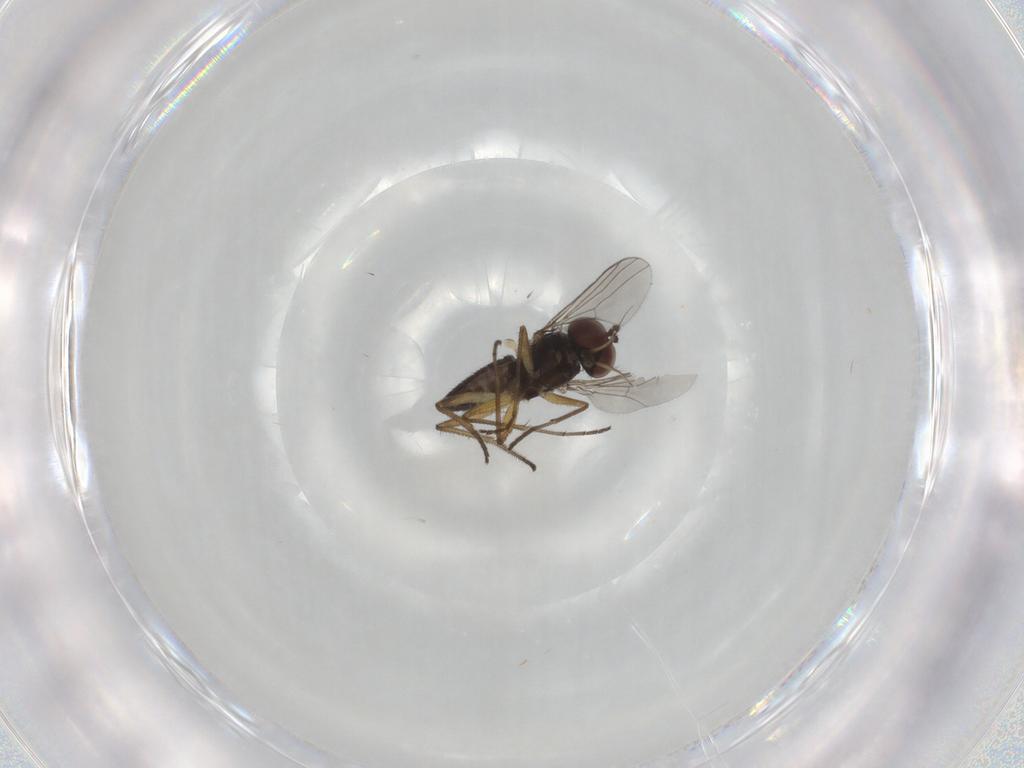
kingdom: Animalia
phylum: Arthropoda
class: Insecta
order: Diptera
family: Dolichopodidae
